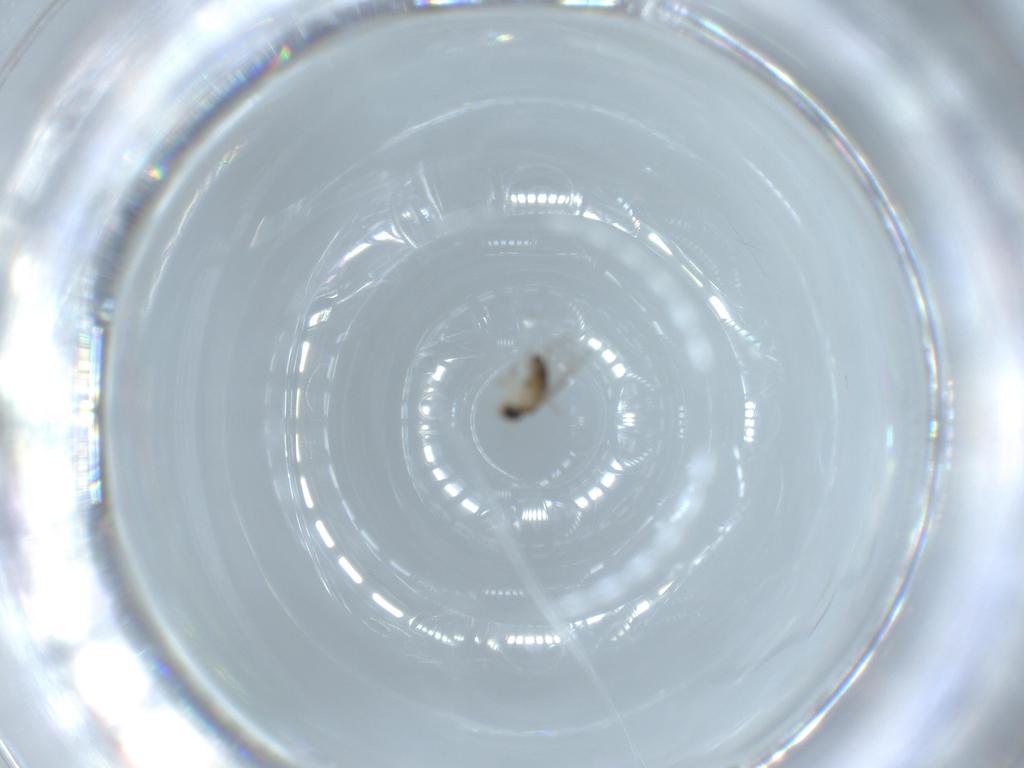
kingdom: Animalia
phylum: Arthropoda
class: Insecta
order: Diptera
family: Phoridae
